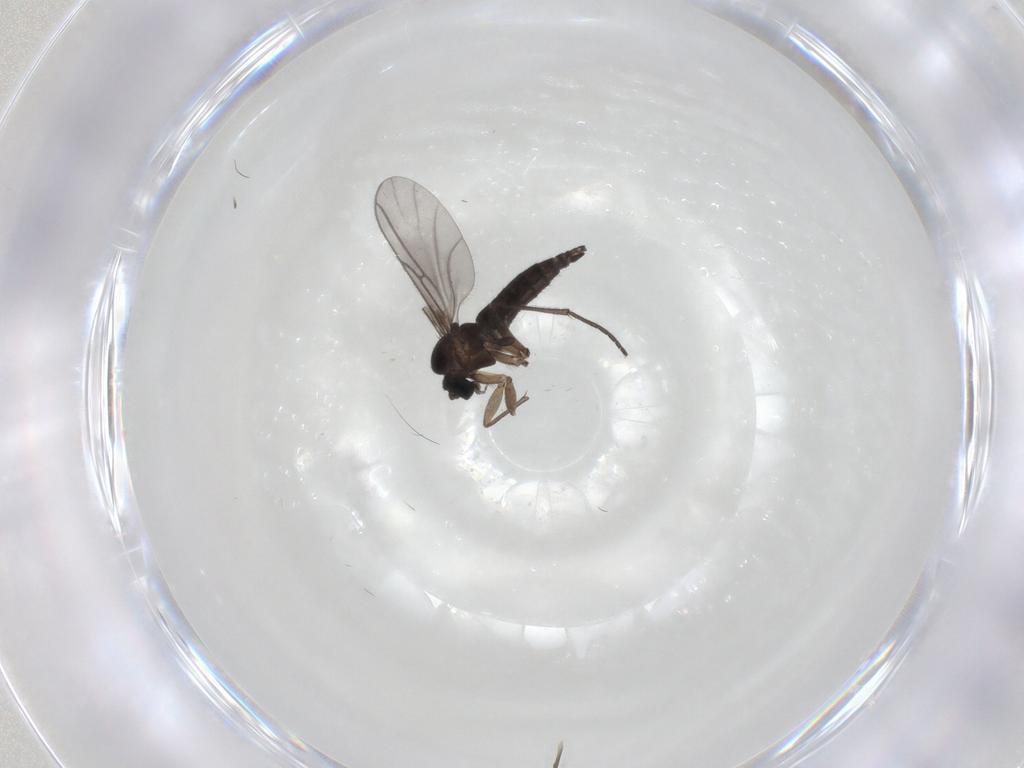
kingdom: Animalia
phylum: Arthropoda
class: Insecta
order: Diptera
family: Sciaridae
